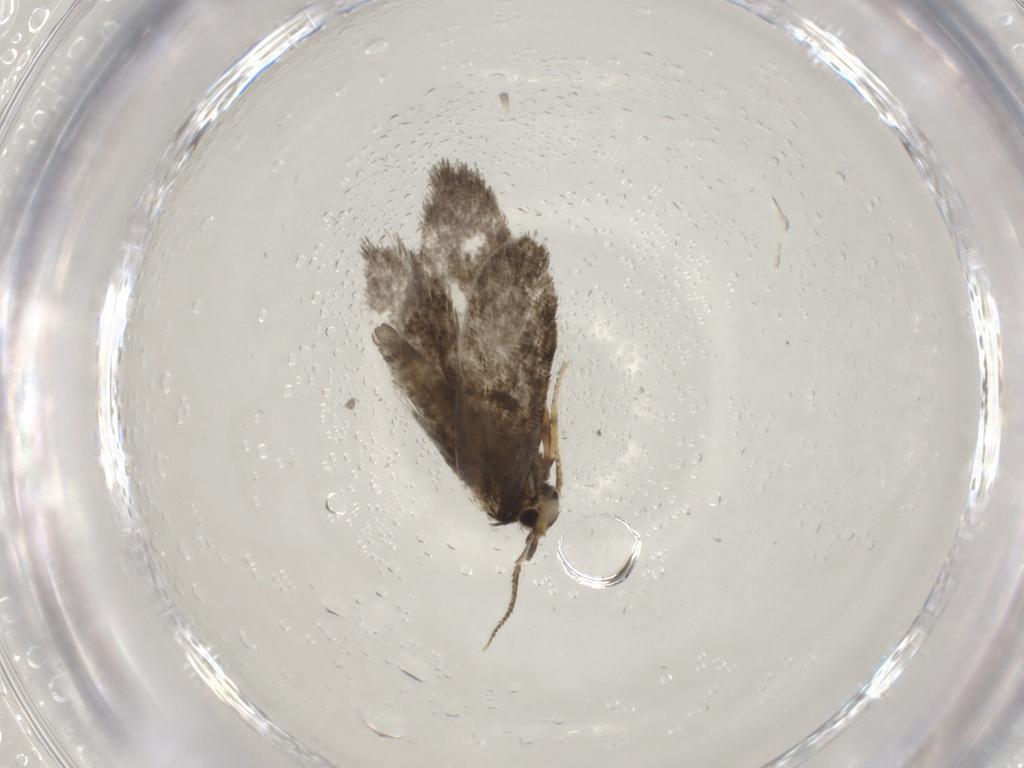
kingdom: Animalia
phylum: Arthropoda
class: Insecta
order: Lepidoptera
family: Psychidae
